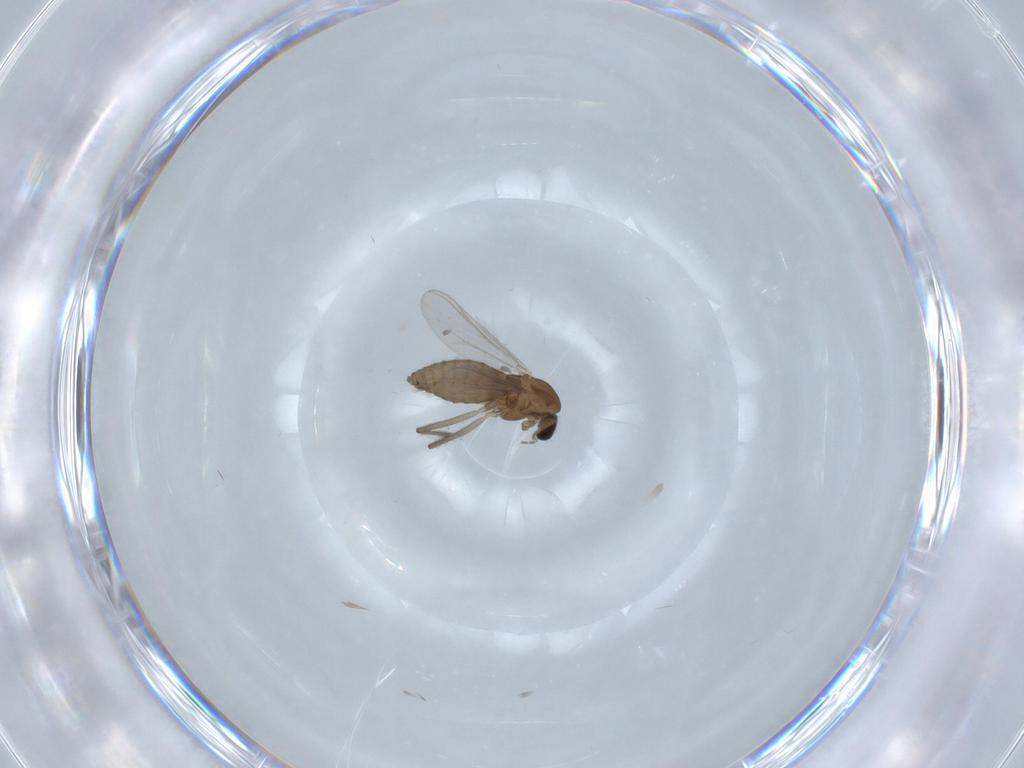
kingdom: Animalia
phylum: Arthropoda
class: Insecta
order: Diptera
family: Chironomidae
